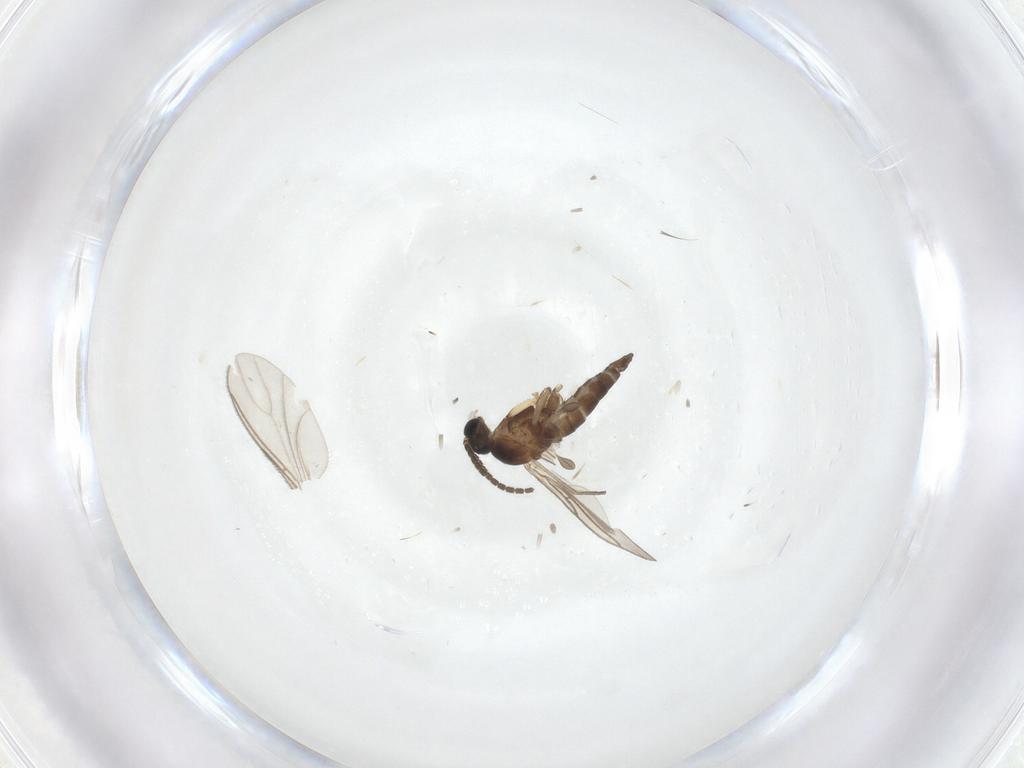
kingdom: Animalia
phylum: Arthropoda
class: Insecta
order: Diptera
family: Sciaridae
